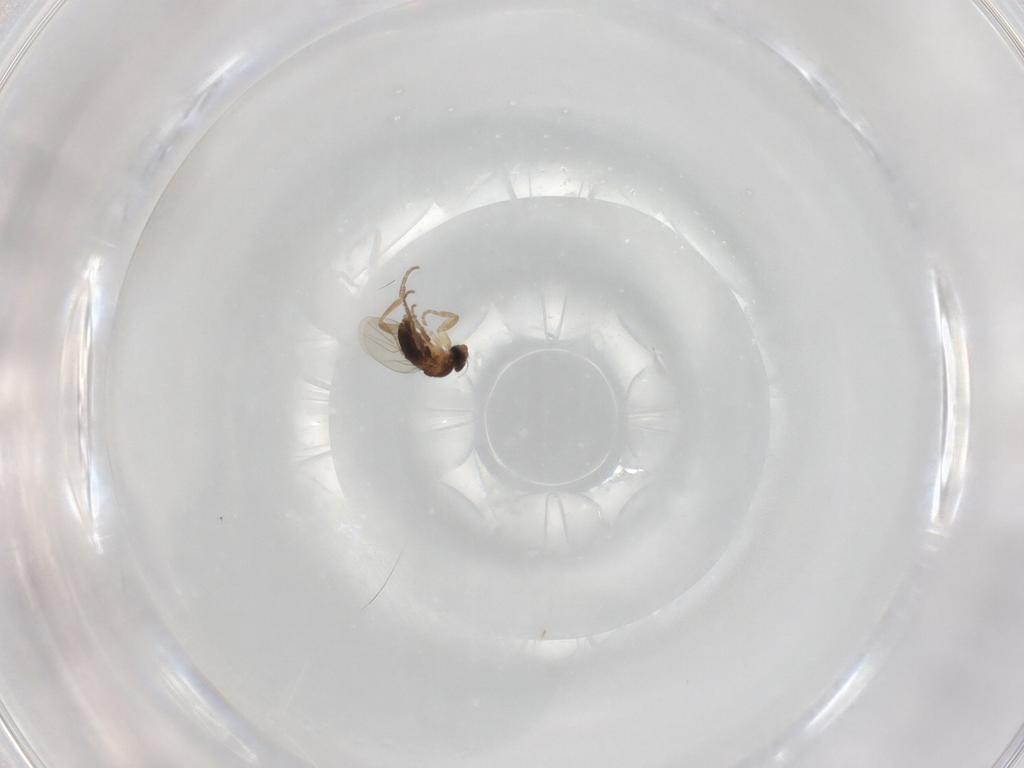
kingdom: Animalia
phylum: Arthropoda
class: Insecta
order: Diptera
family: Sciaridae
